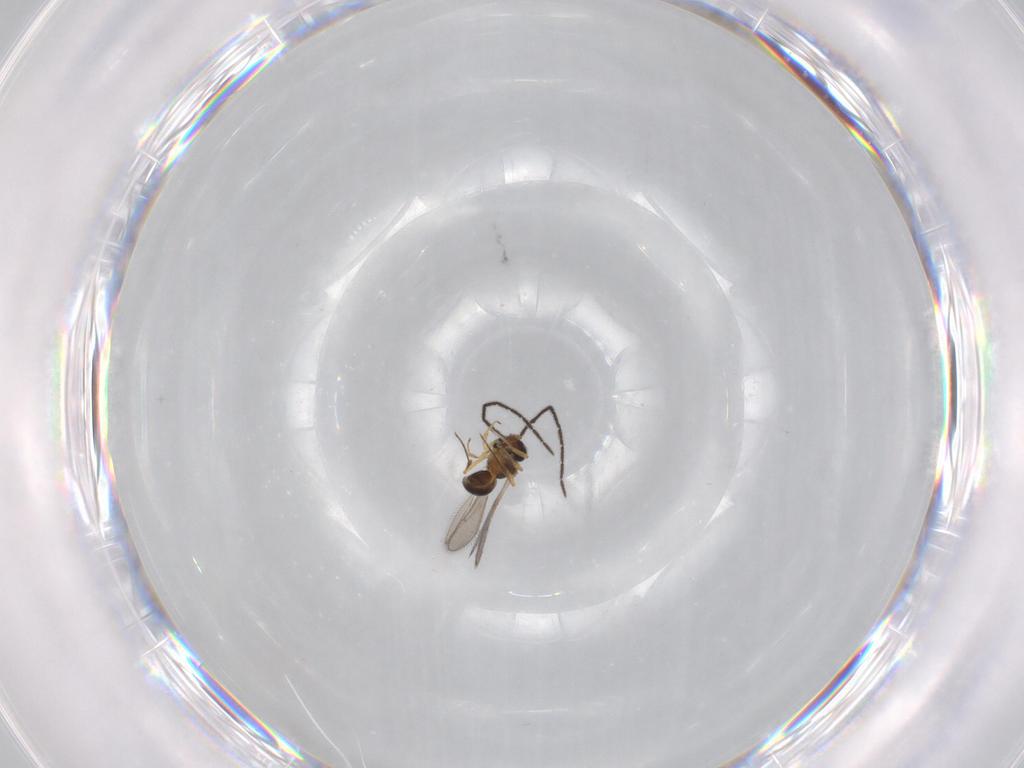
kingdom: Animalia
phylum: Arthropoda
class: Insecta
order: Hymenoptera
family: Scelionidae
